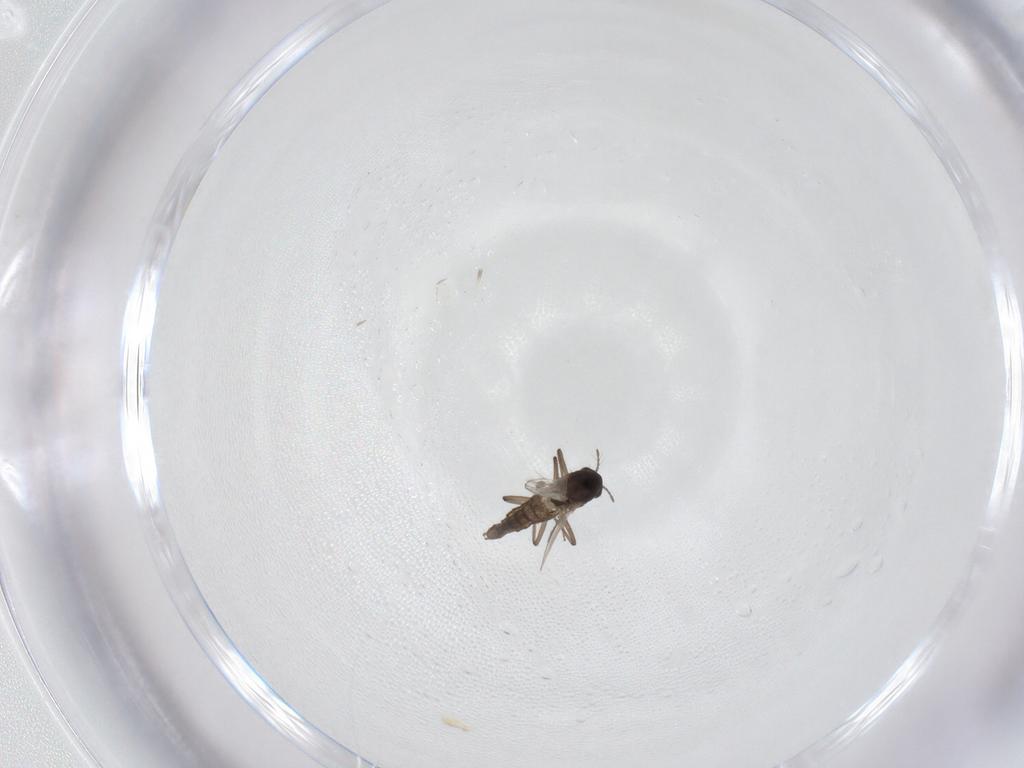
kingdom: Animalia
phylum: Arthropoda
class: Insecta
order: Diptera
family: Chironomidae
